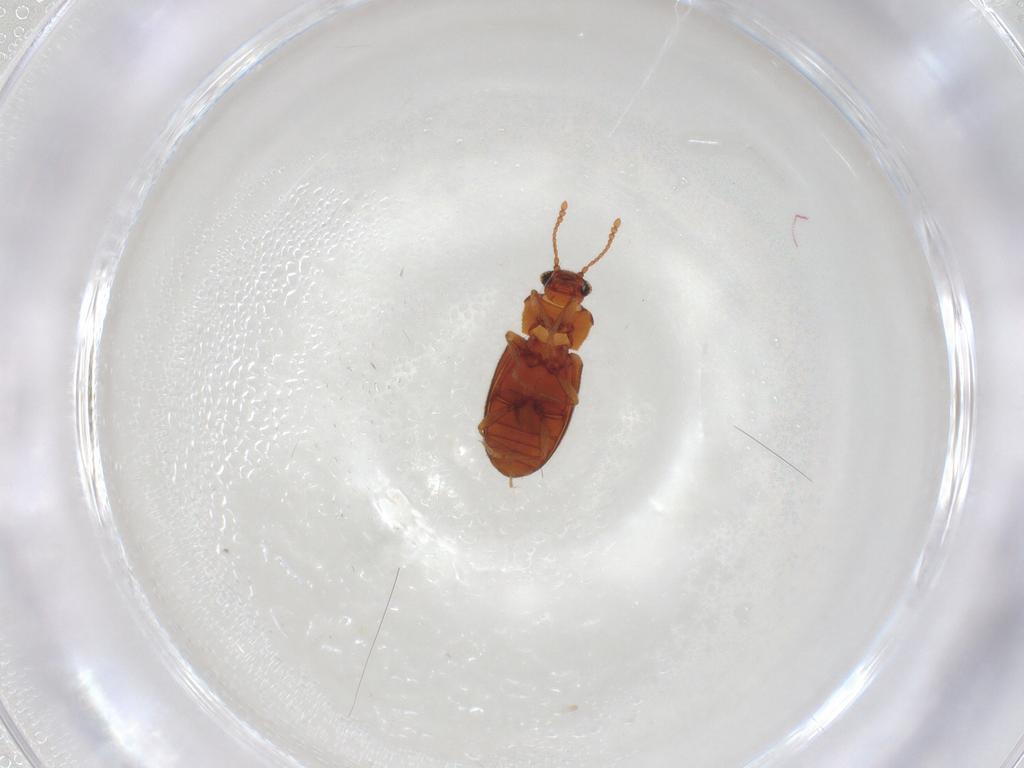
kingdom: Animalia
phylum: Arthropoda
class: Insecta
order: Coleoptera
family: Cryptophagidae
